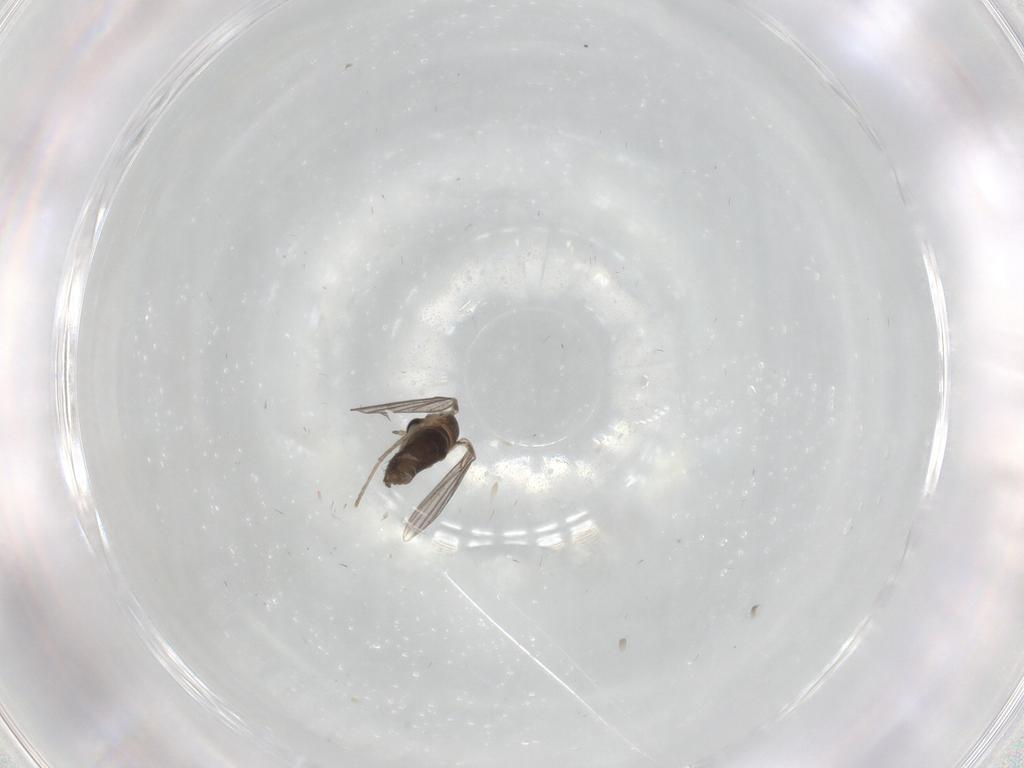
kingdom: Animalia
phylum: Arthropoda
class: Insecta
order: Diptera
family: Cecidomyiidae
